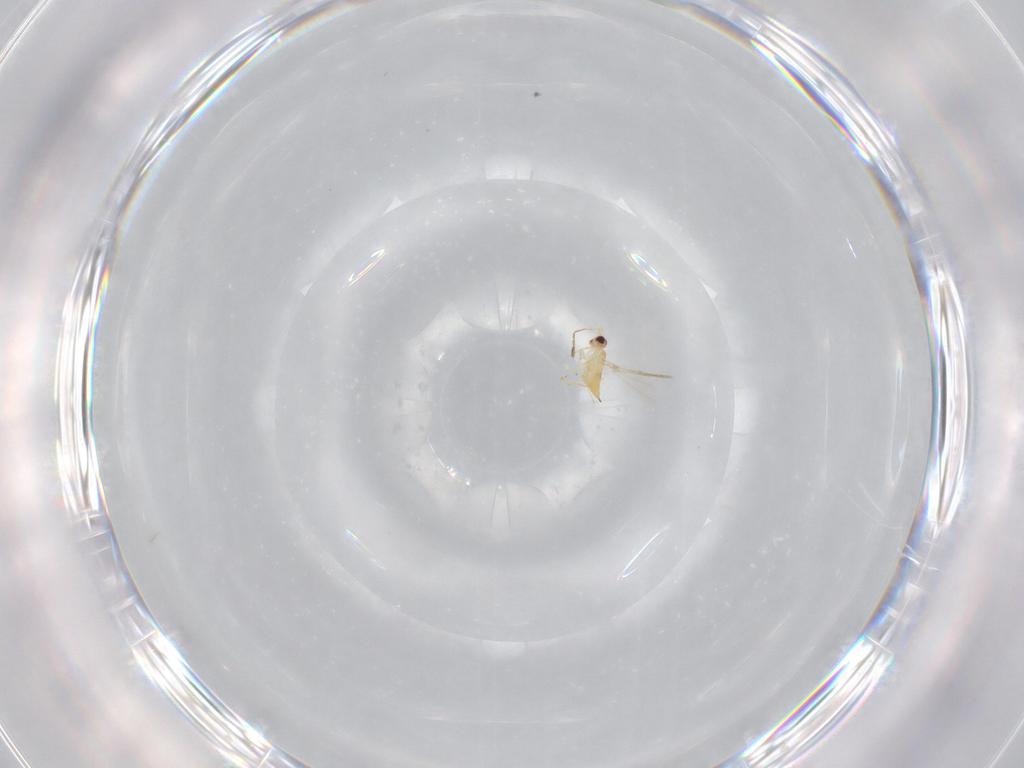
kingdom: Animalia
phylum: Arthropoda
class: Insecta
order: Hymenoptera
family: Mymaridae
